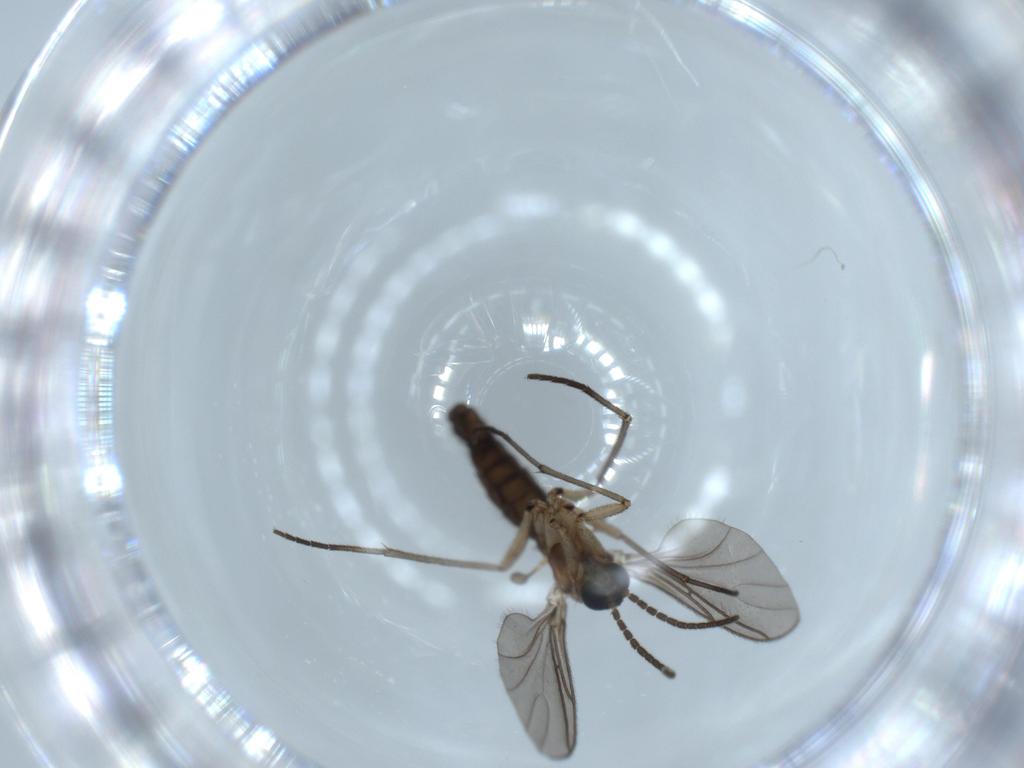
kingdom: Animalia
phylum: Arthropoda
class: Insecta
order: Diptera
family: Sciaridae
